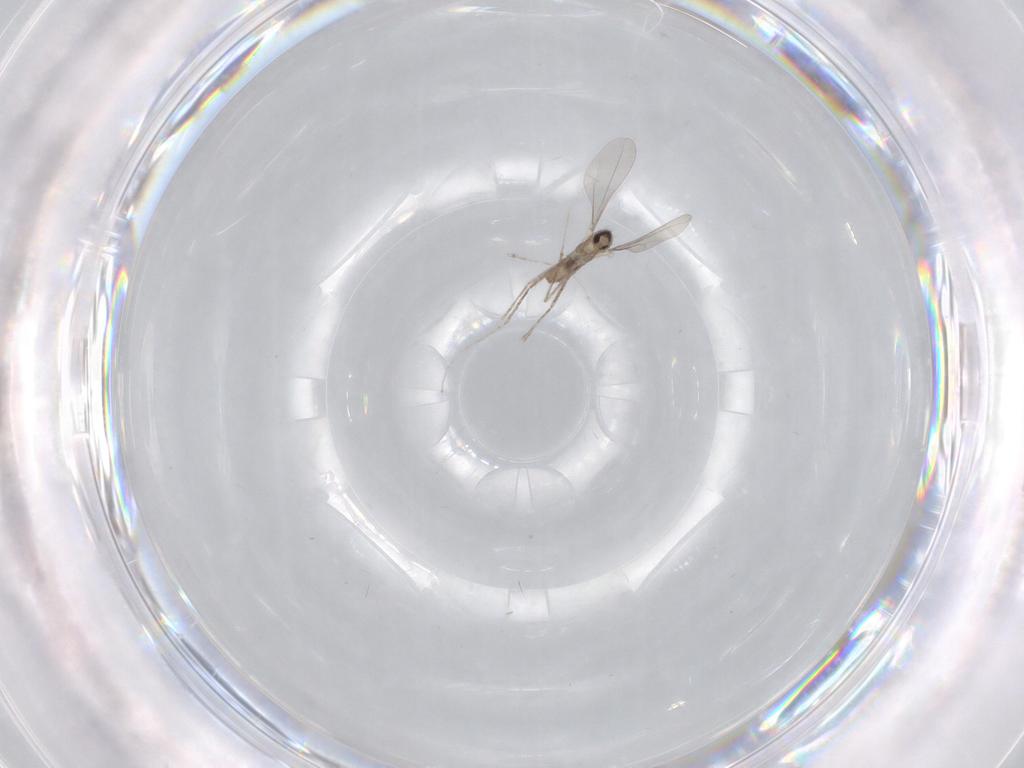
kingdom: Animalia
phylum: Arthropoda
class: Insecta
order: Diptera
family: Cecidomyiidae
